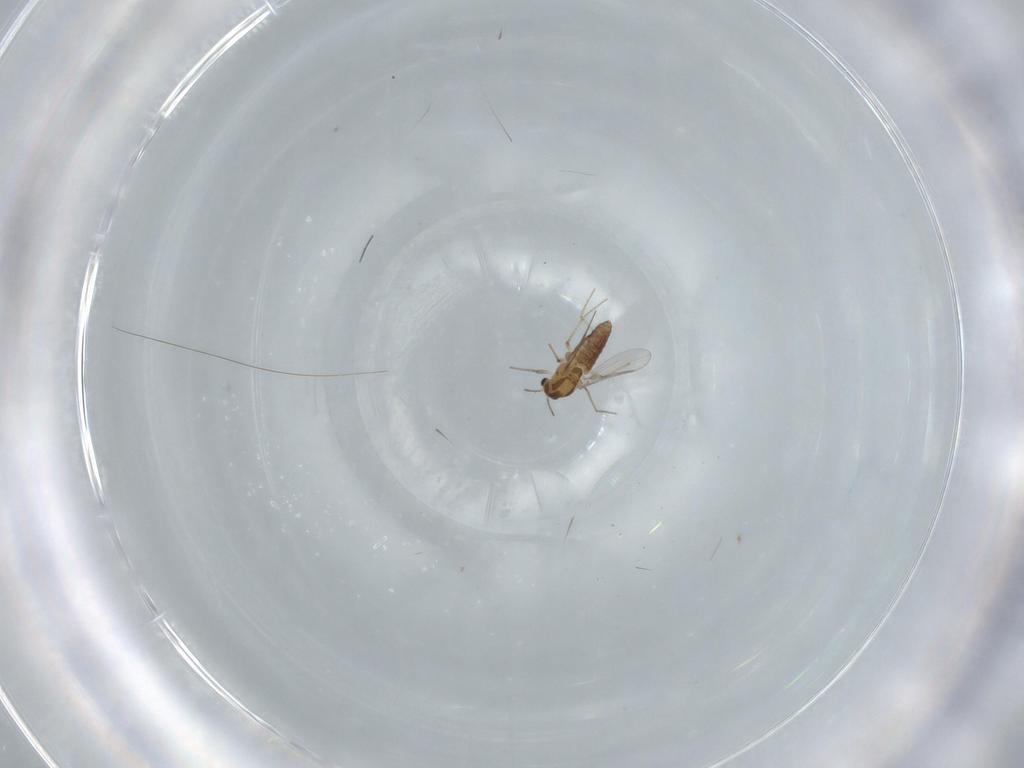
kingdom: Animalia
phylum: Arthropoda
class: Insecta
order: Diptera
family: Chironomidae
